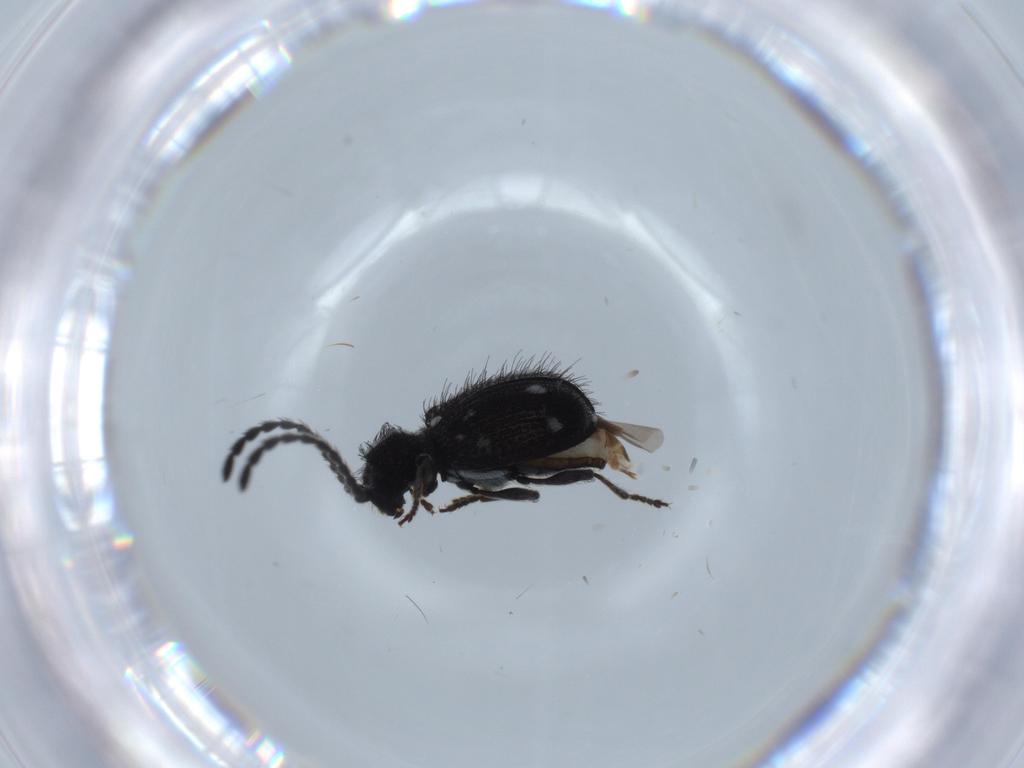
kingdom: Animalia
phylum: Arthropoda
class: Insecta
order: Coleoptera
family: Ptinidae
